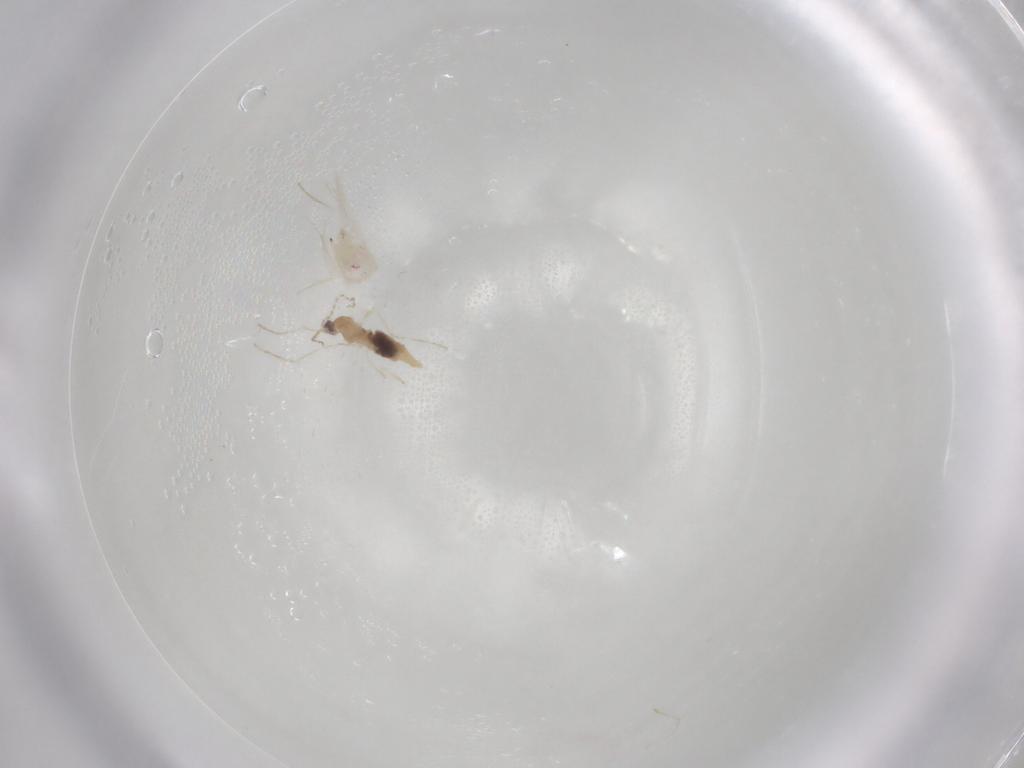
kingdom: Animalia
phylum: Arthropoda
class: Insecta
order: Diptera
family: Cecidomyiidae
